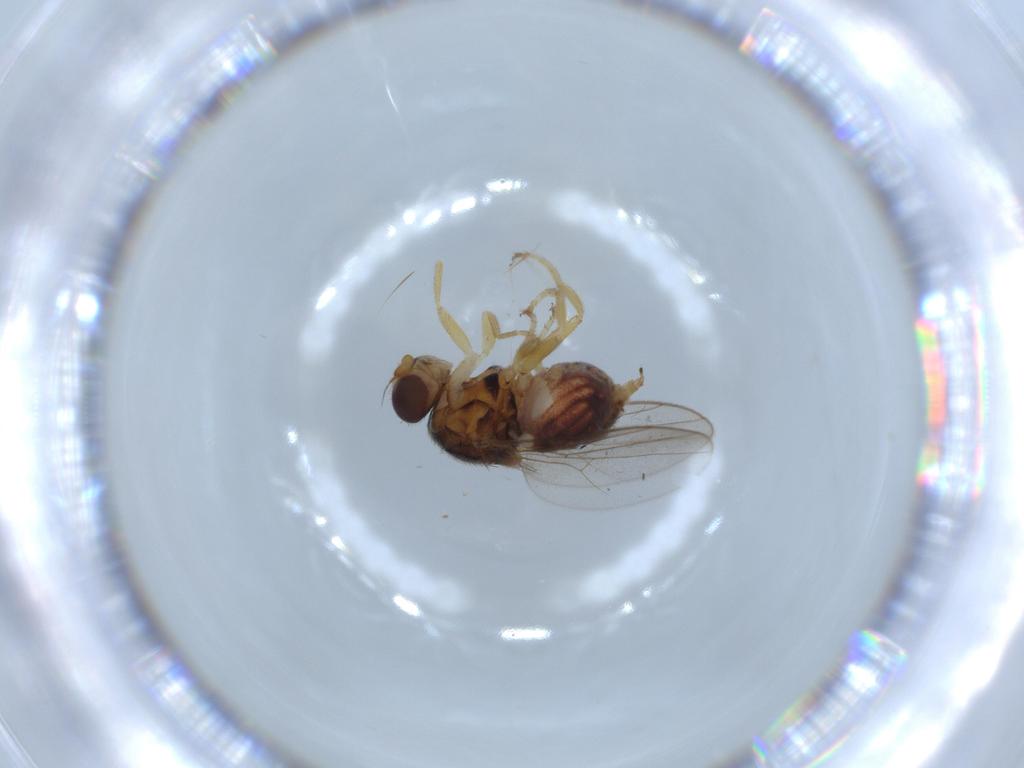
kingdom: Animalia
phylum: Arthropoda
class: Insecta
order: Diptera
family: Chloropidae
